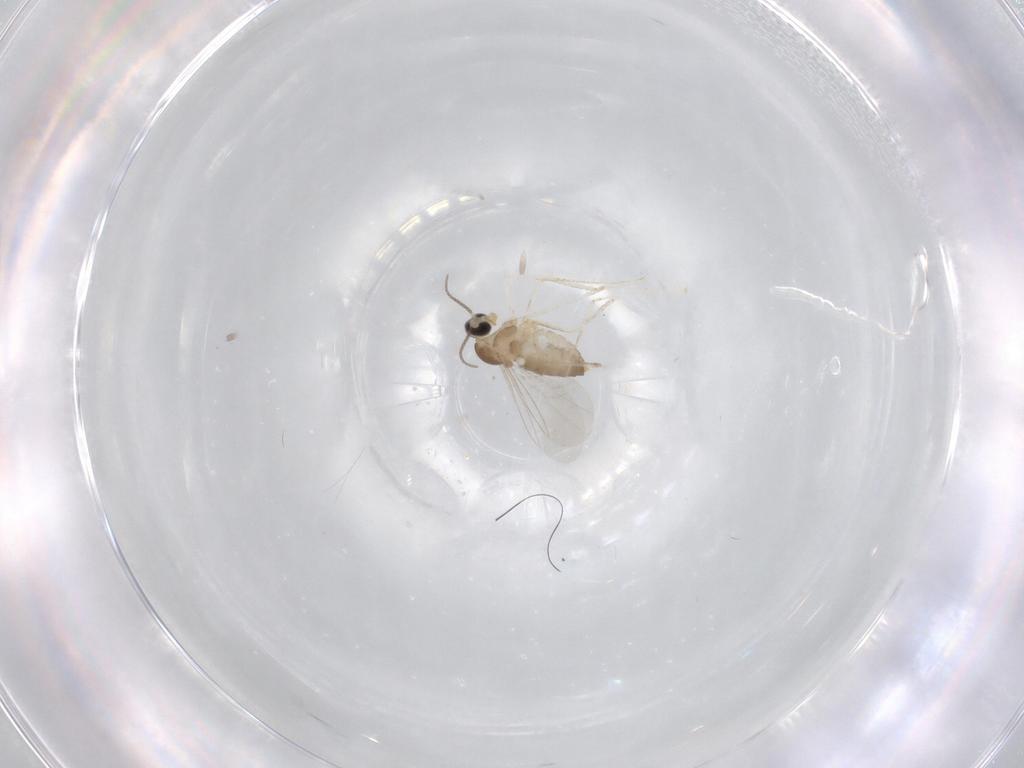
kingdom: Animalia
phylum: Arthropoda
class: Insecta
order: Diptera
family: Cecidomyiidae
